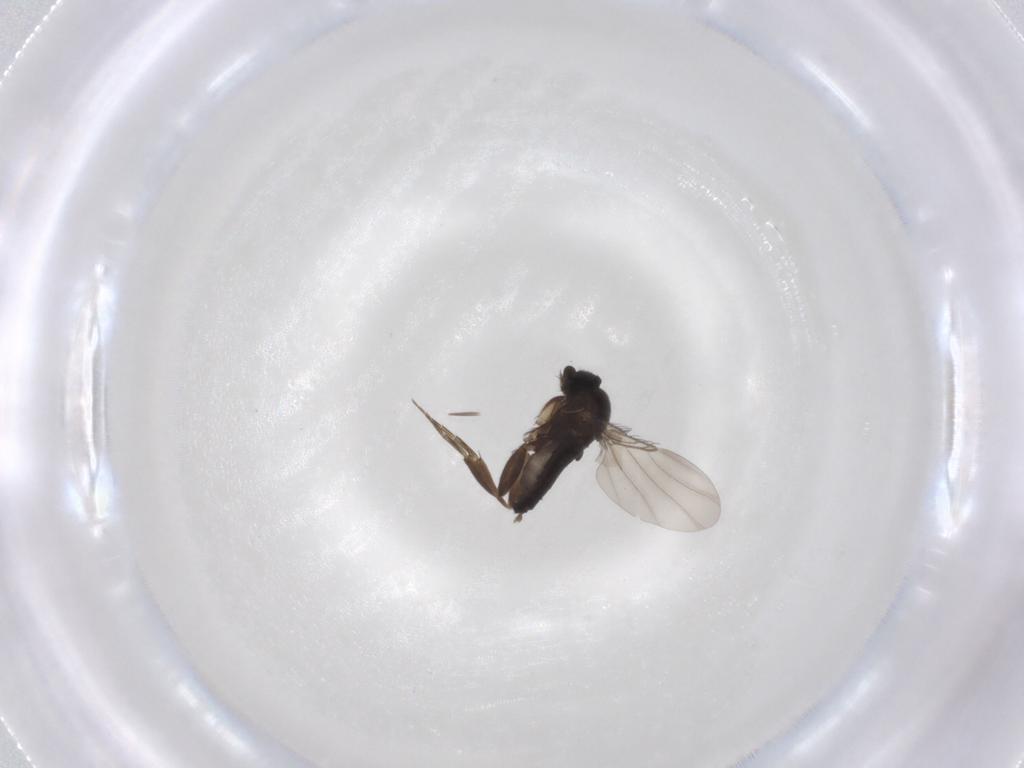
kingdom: Animalia
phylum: Arthropoda
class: Insecta
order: Diptera
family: Phoridae
